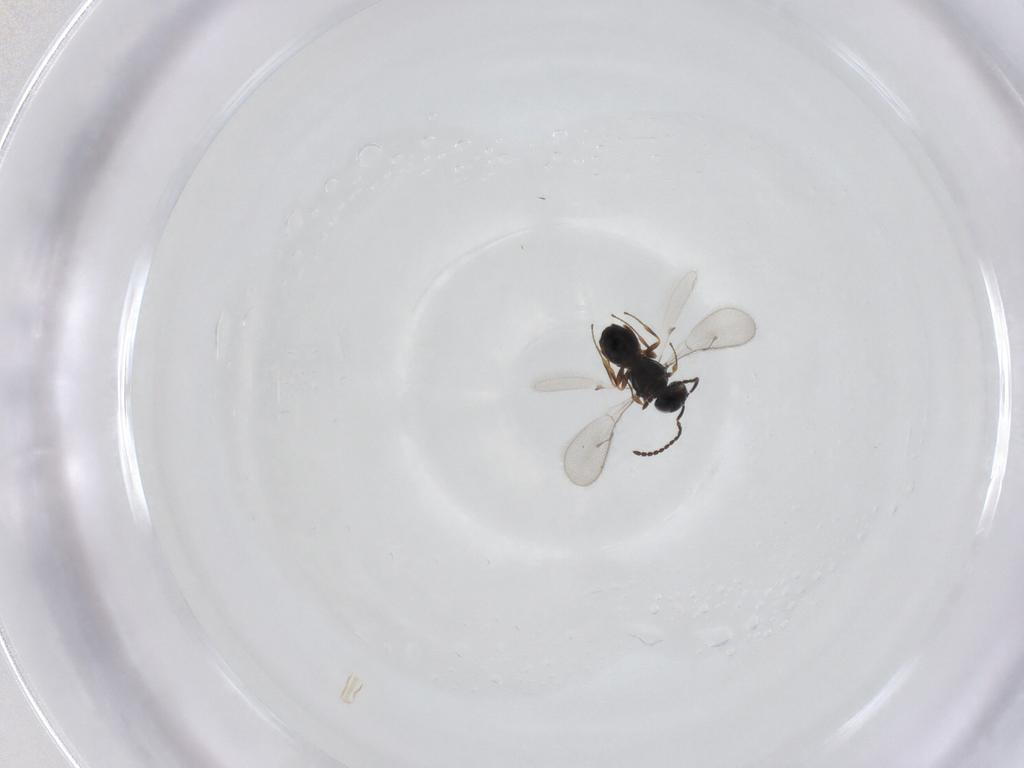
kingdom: Animalia
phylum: Arthropoda
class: Insecta
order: Hymenoptera
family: Scelionidae
